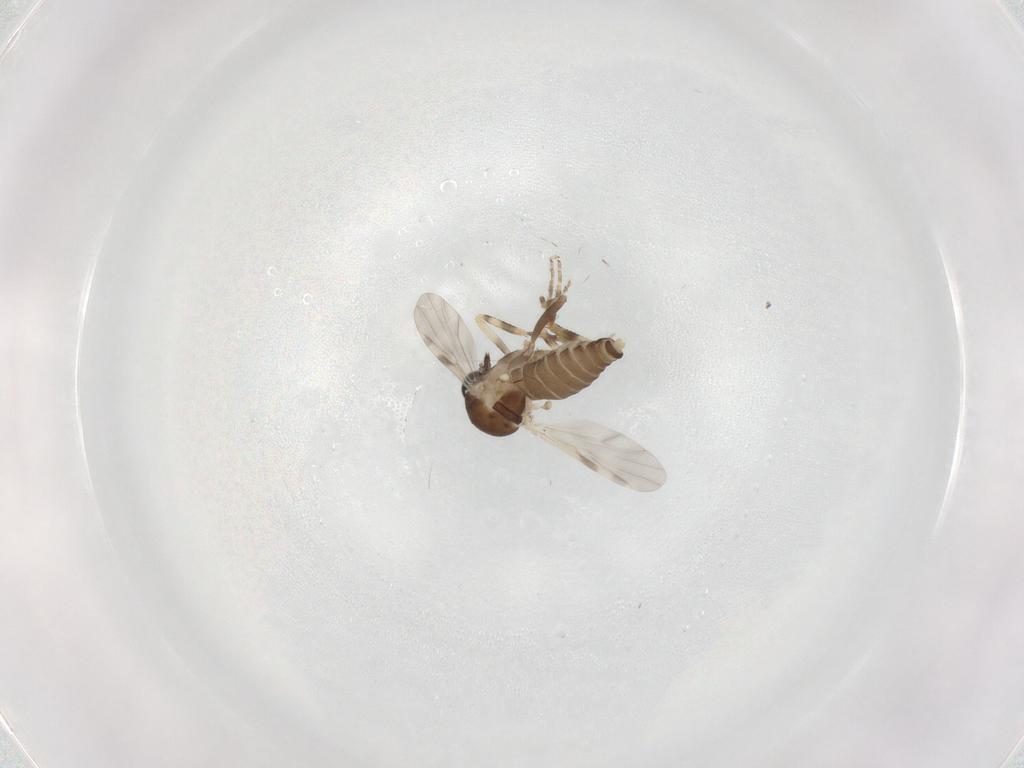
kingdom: Animalia
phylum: Arthropoda
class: Insecta
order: Diptera
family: Ceratopogonidae
